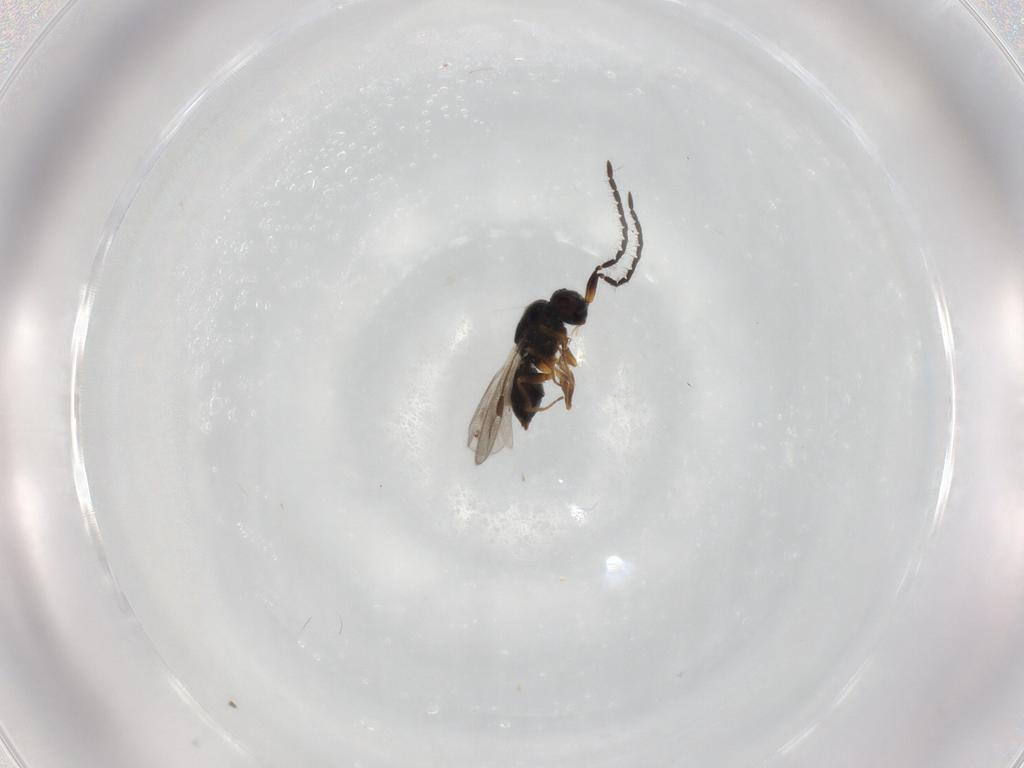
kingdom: Animalia
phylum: Arthropoda
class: Insecta
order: Hymenoptera
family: Megaspilidae
